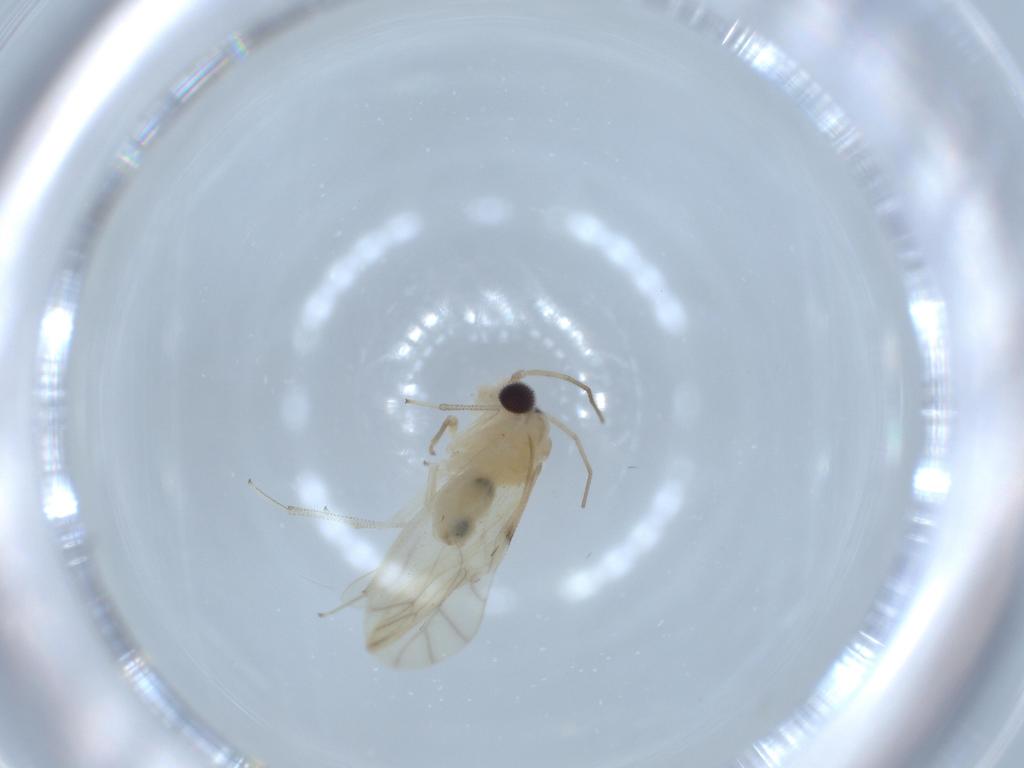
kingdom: Animalia
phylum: Arthropoda
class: Insecta
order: Psocodea
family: Caeciliusidae
